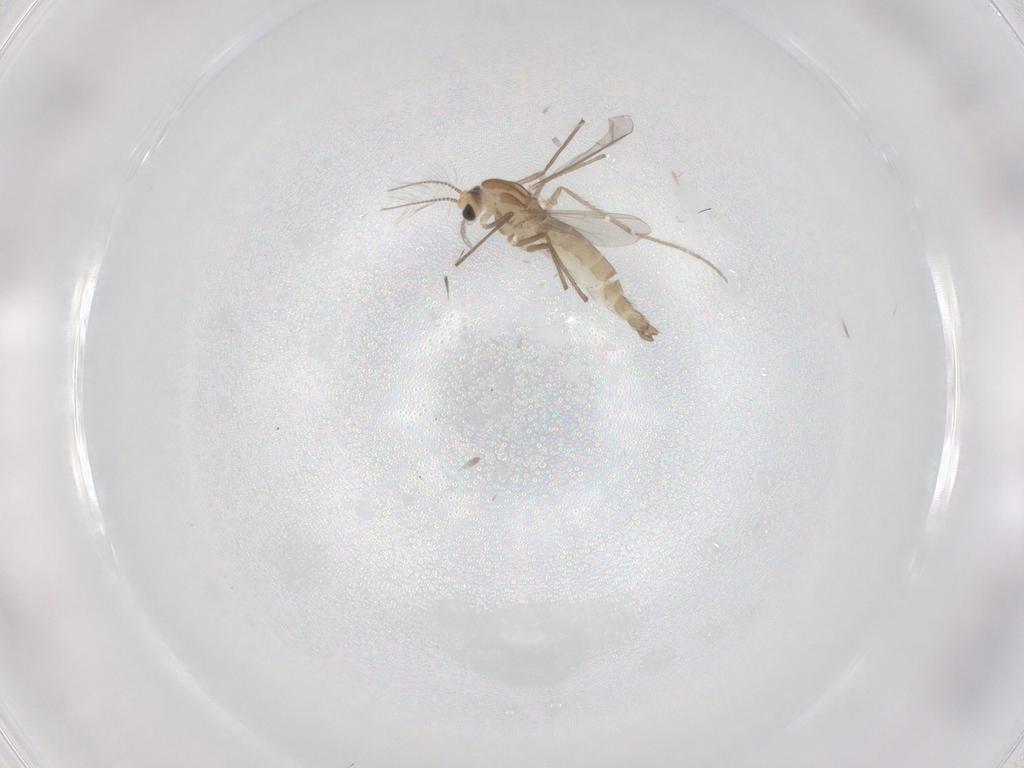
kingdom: Animalia
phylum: Arthropoda
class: Insecta
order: Diptera
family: Chironomidae
